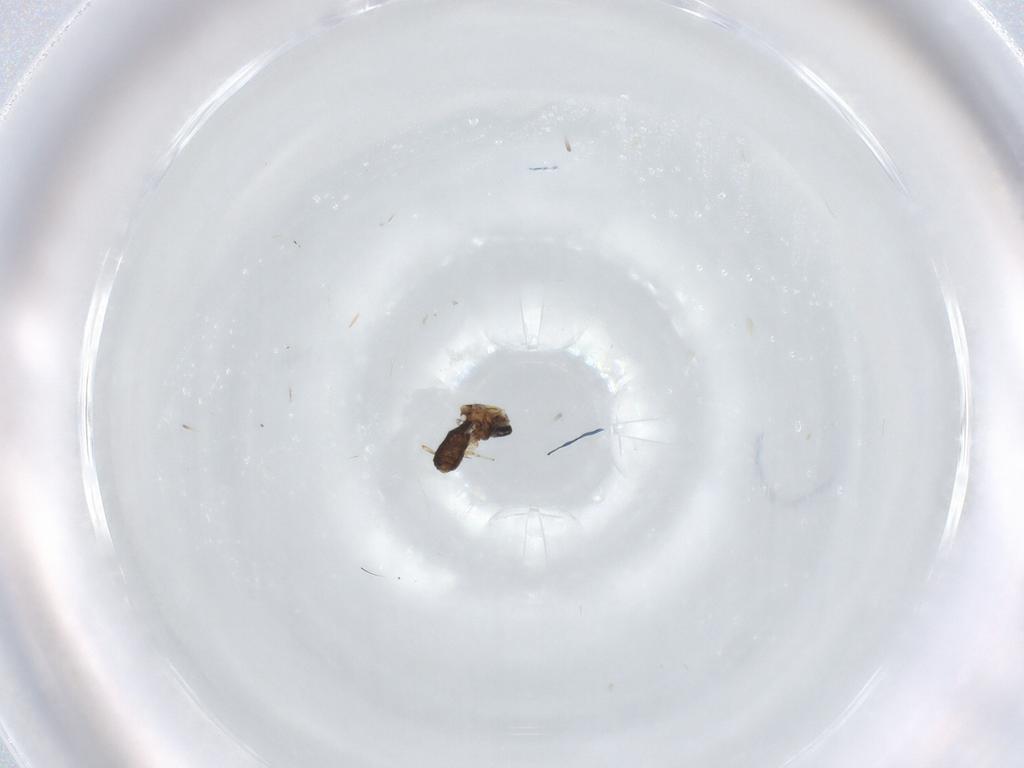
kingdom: Animalia
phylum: Arthropoda
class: Insecta
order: Diptera
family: Ceratopogonidae
